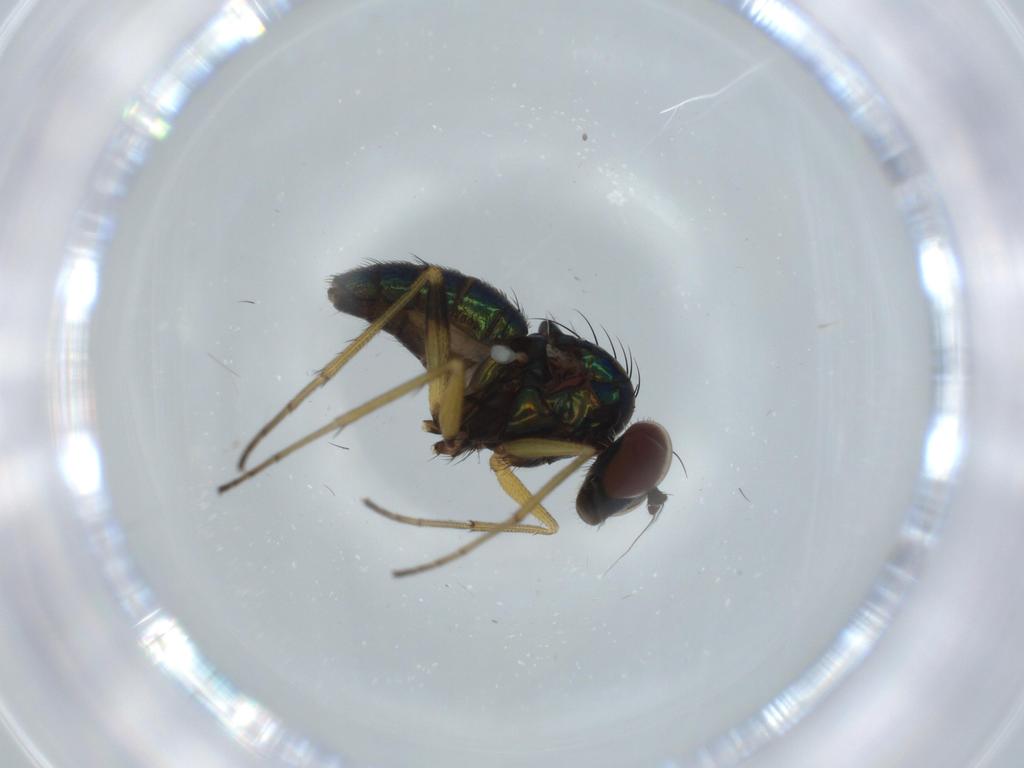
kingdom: Animalia
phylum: Arthropoda
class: Insecta
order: Diptera
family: Dolichopodidae
